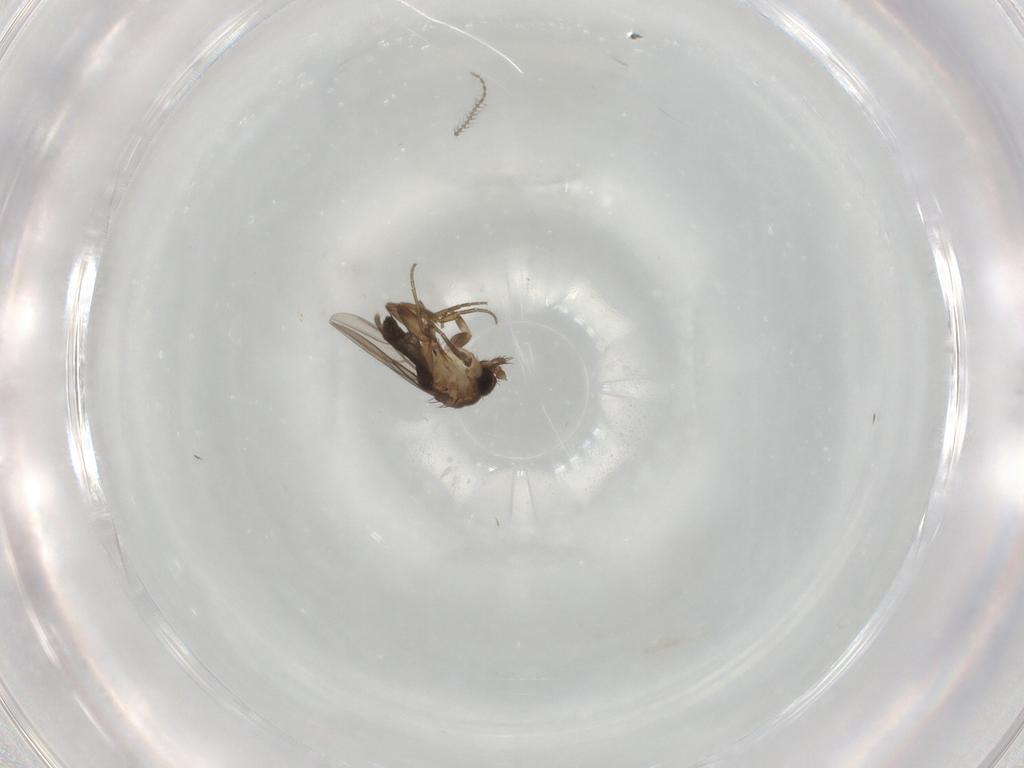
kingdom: Animalia
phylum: Arthropoda
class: Insecta
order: Diptera
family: Phoridae
